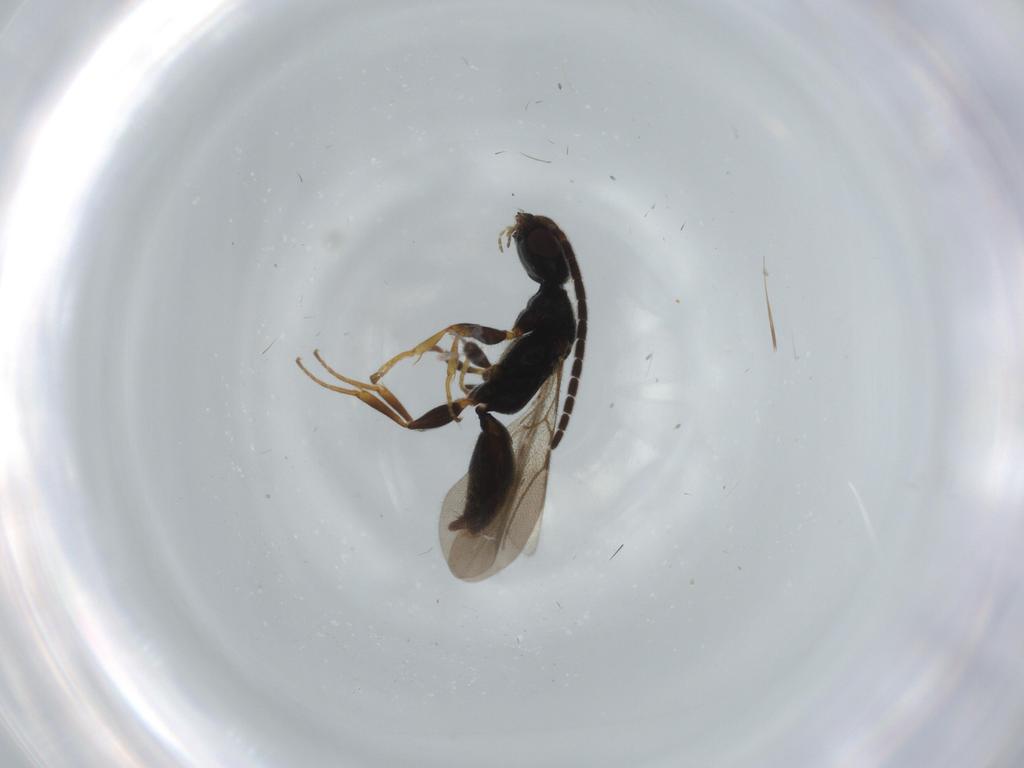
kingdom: Animalia
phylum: Arthropoda
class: Insecta
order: Hymenoptera
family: Bethylidae
